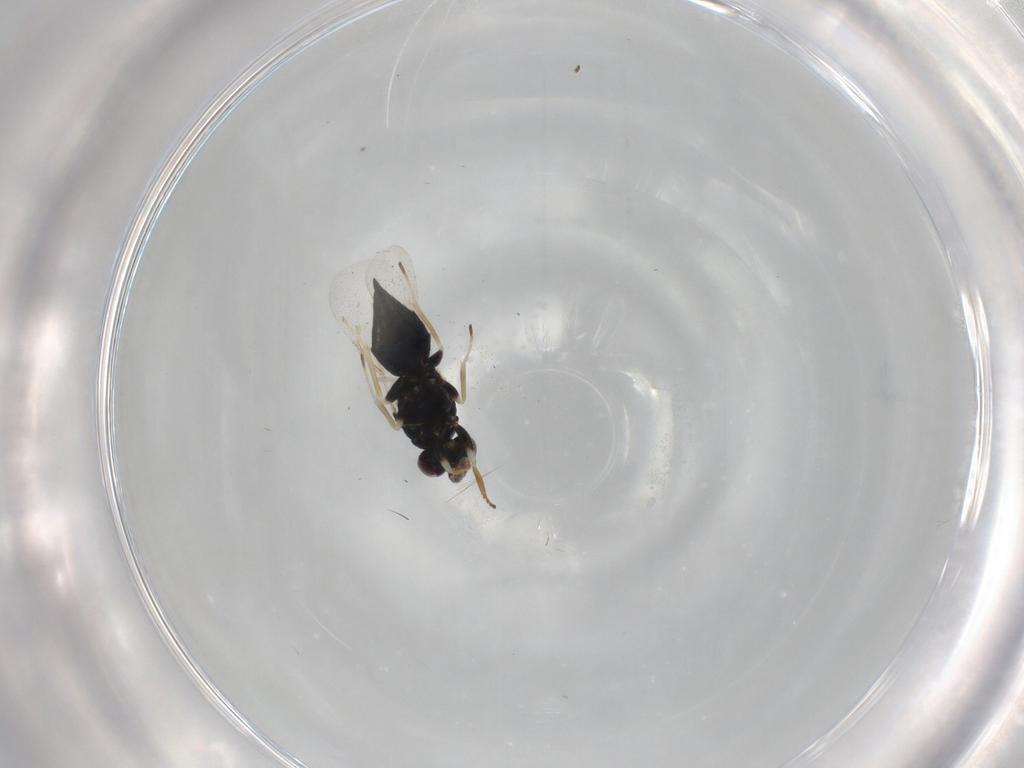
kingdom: Animalia
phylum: Arthropoda
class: Insecta
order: Hymenoptera
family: Eulophidae
